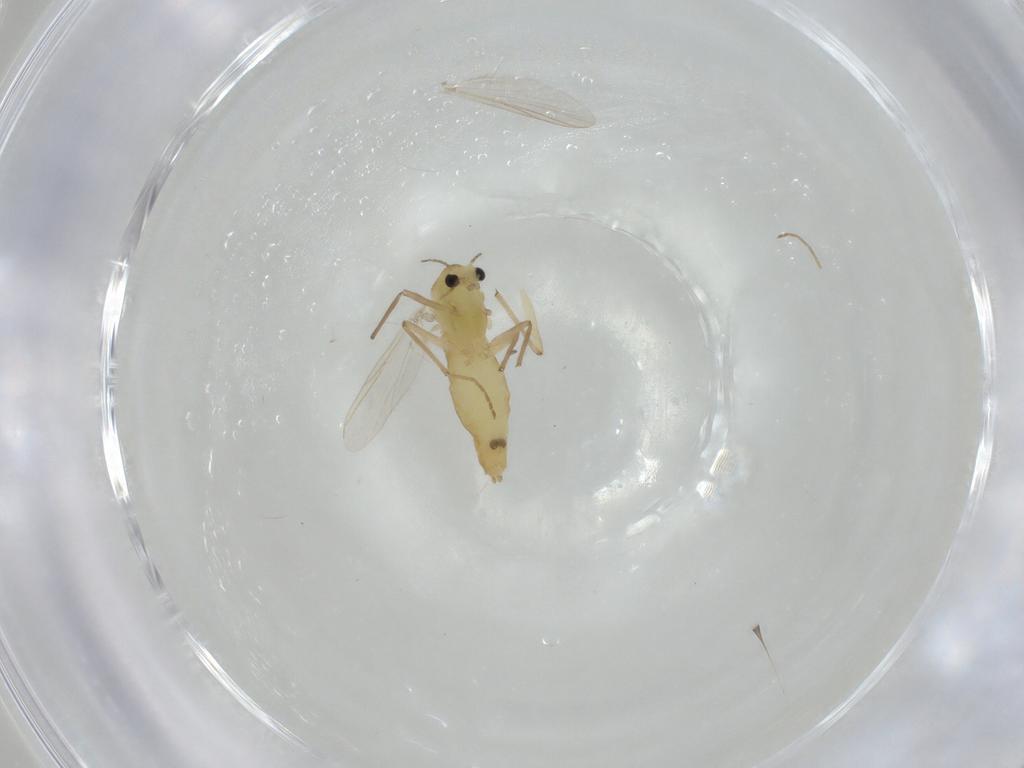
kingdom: Animalia
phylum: Arthropoda
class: Insecta
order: Diptera
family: Chironomidae
